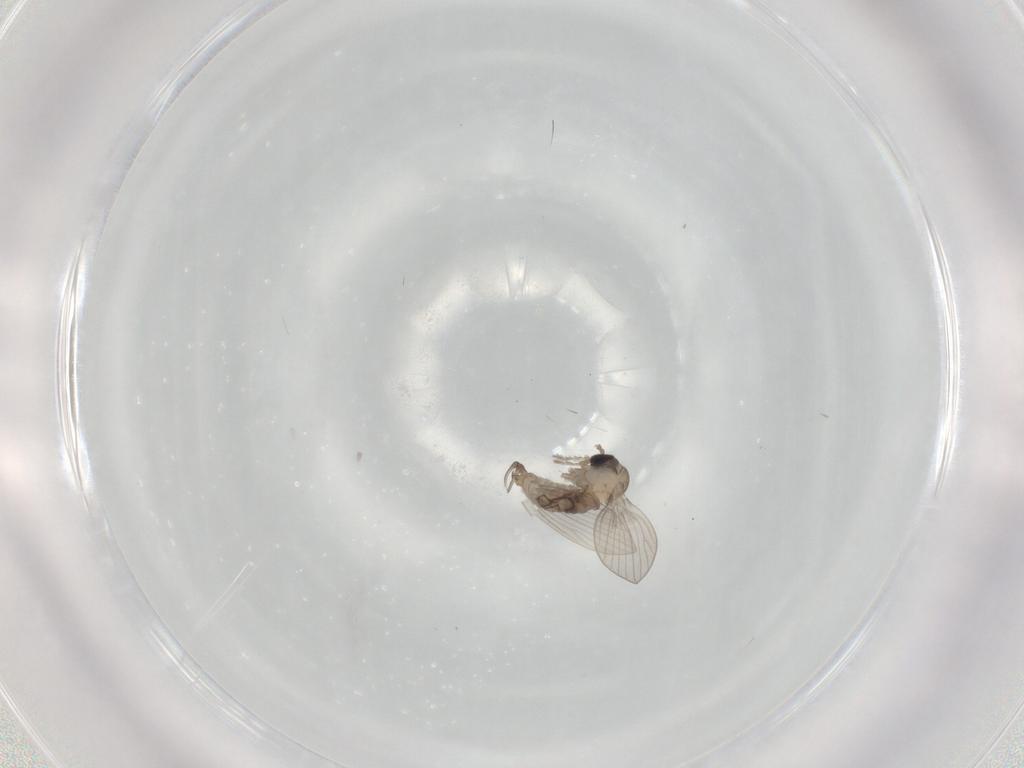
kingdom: Animalia
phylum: Arthropoda
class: Insecta
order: Diptera
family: Psychodidae
